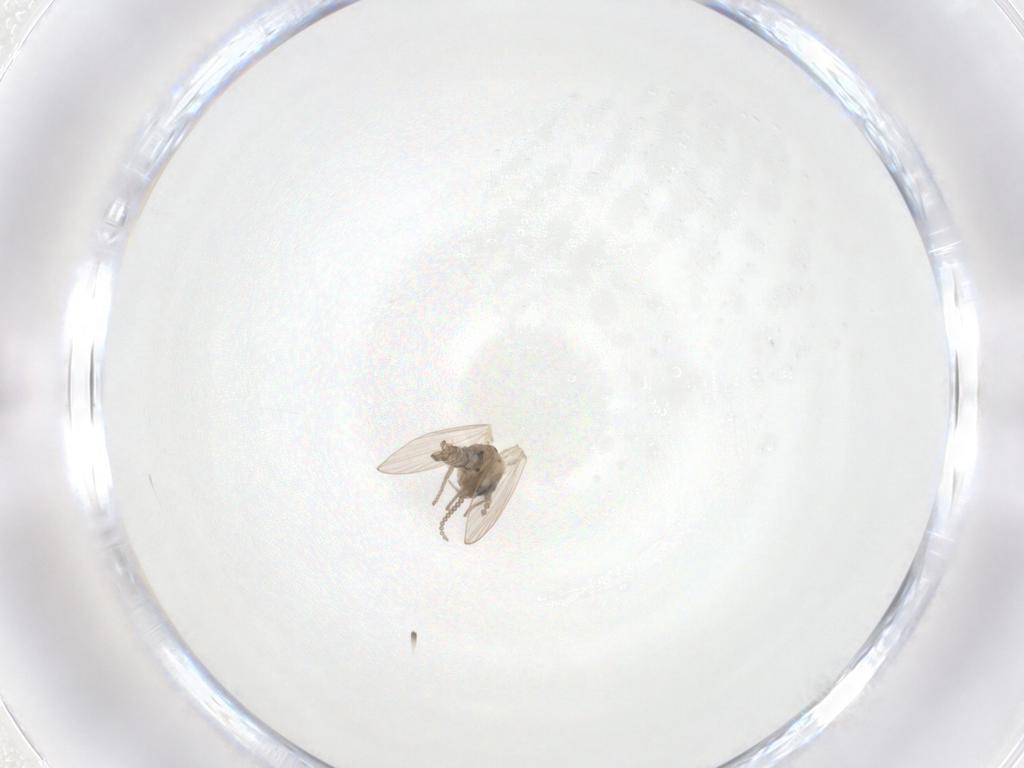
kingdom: Animalia
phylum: Arthropoda
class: Insecta
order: Diptera
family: Psychodidae
